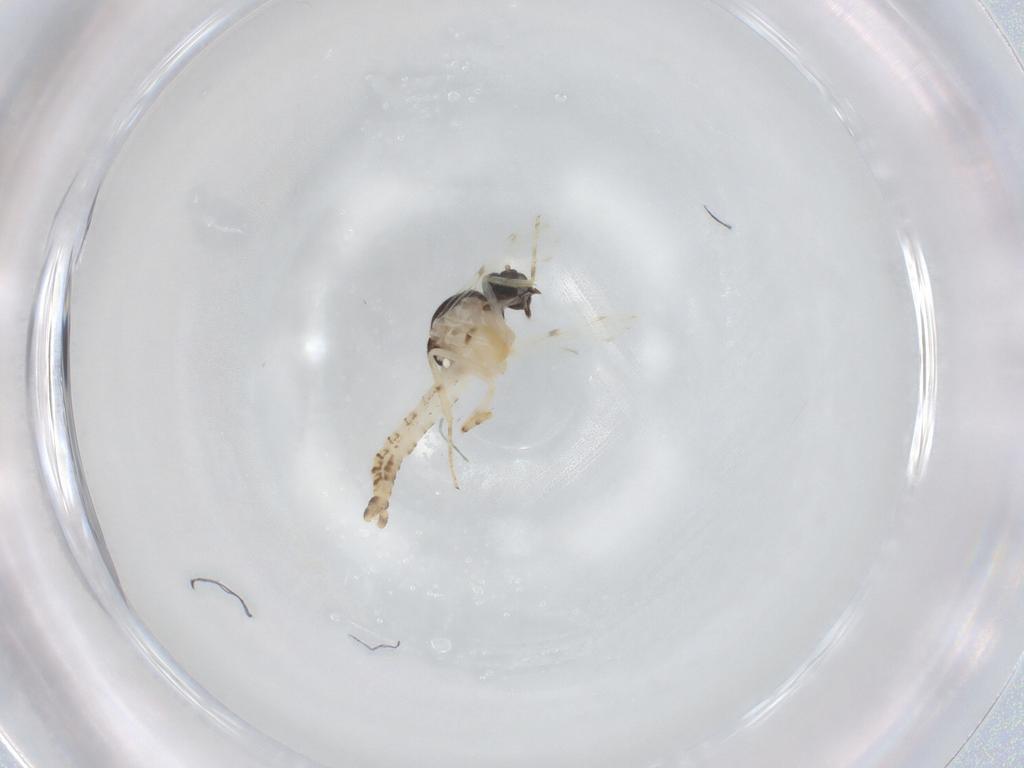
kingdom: Animalia
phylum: Arthropoda
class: Insecta
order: Diptera
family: Ceratopogonidae
